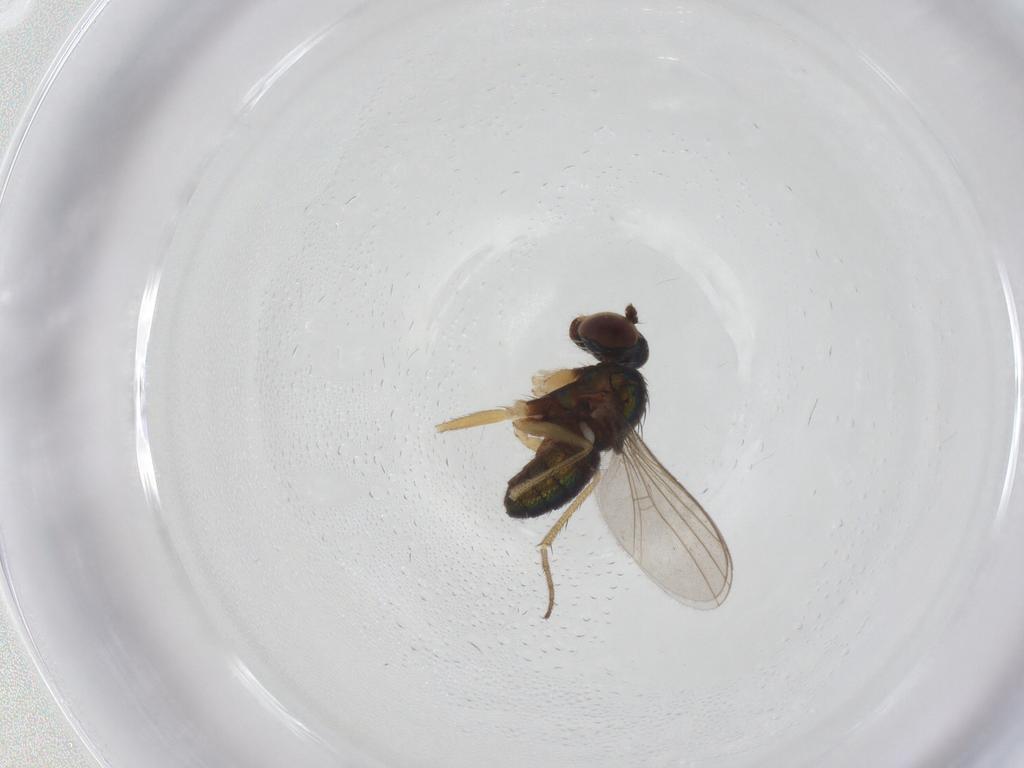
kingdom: Animalia
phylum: Arthropoda
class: Insecta
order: Diptera
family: Dolichopodidae
